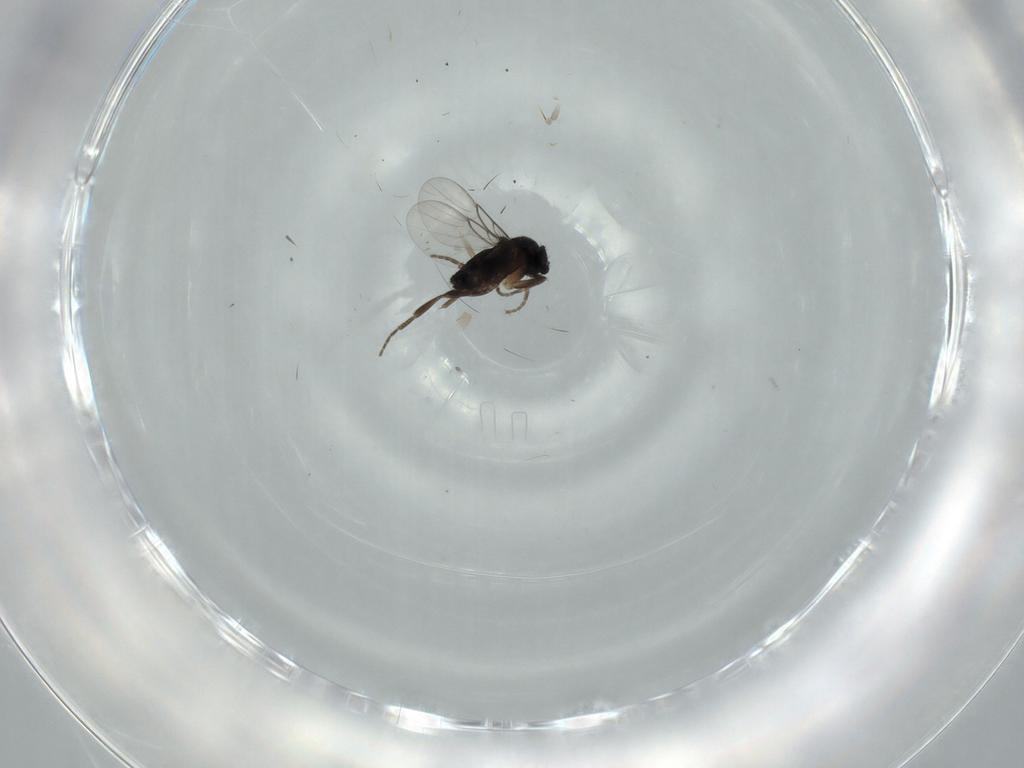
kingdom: Animalia
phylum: Arthropoda
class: Insecta
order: Diptera
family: Phoridae
